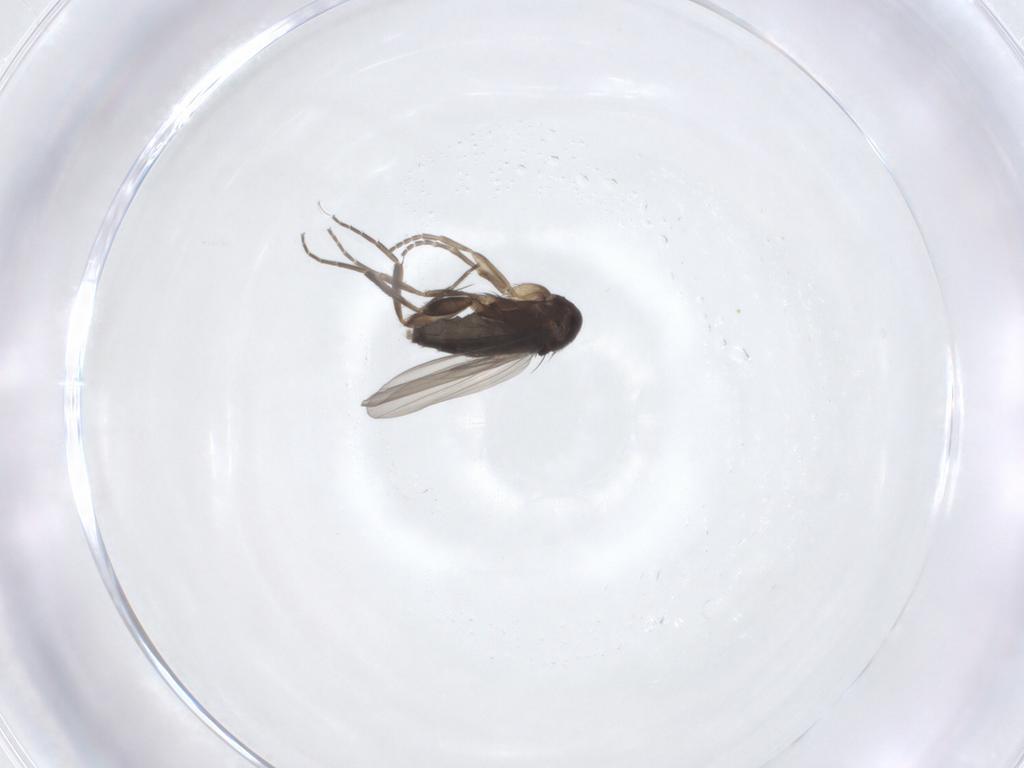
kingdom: Animalia
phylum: Arthropoda
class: Insecta
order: Diptera
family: Phoridae
